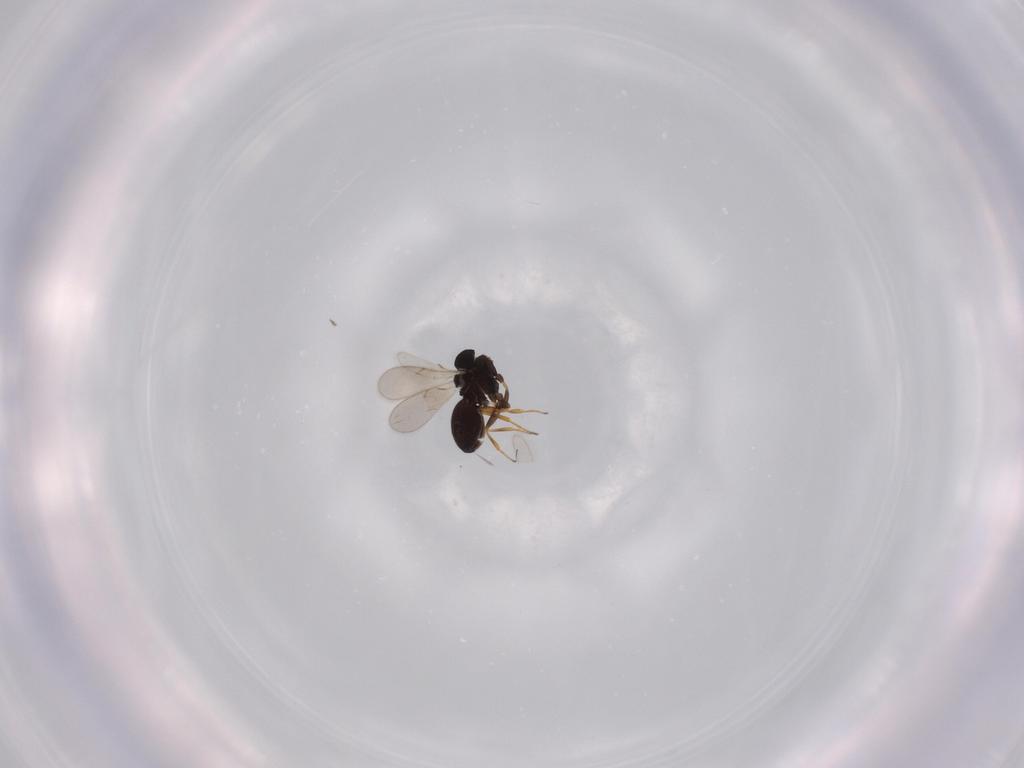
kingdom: Animalia
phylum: Arthropoda
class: Insecta
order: Hymenoptera
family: Scelionidae
